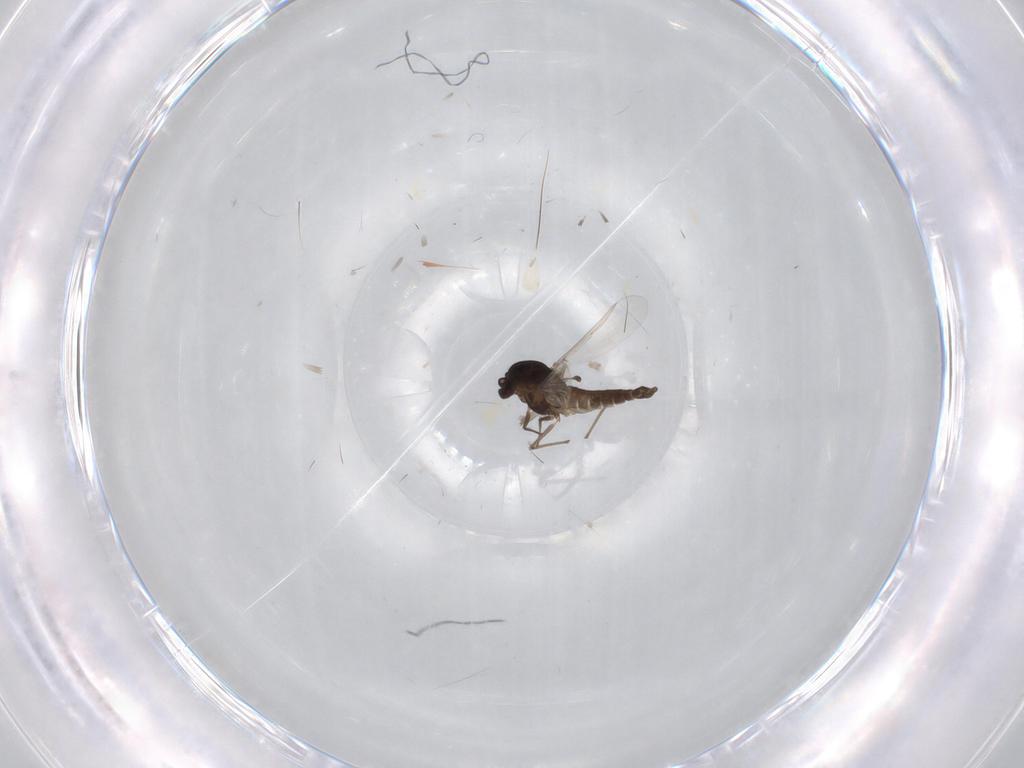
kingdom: Animalia
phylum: Arthropoda
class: Insecta
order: Diptera
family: Chironomidae
